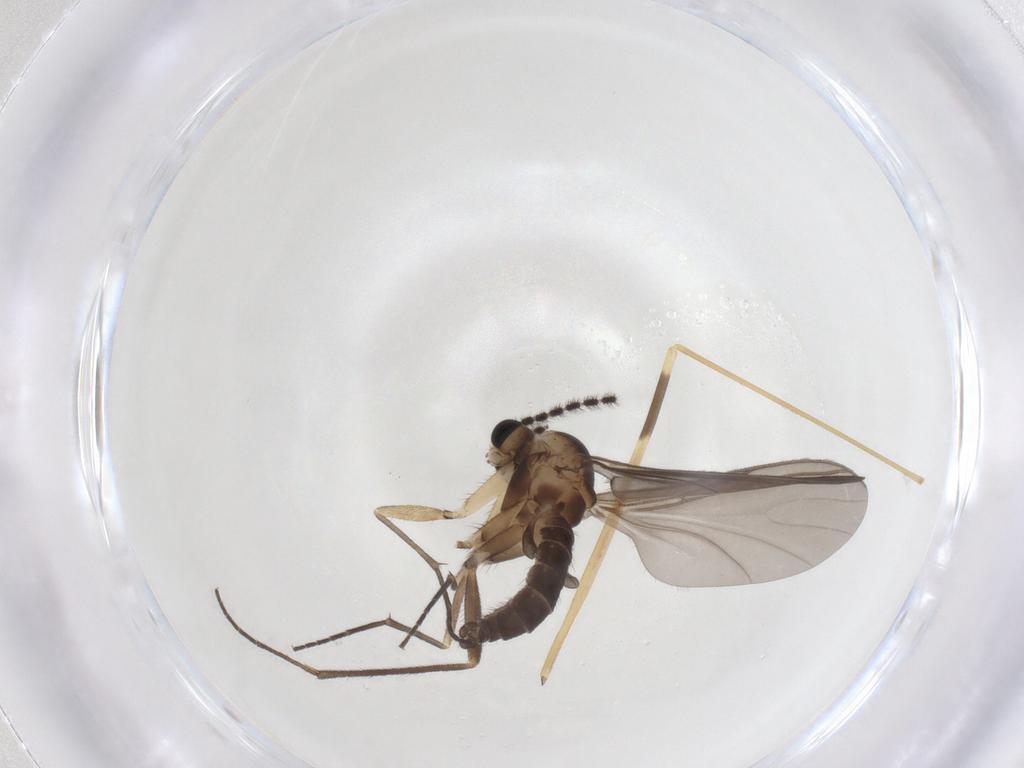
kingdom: Animalia
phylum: Arthropoda
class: Insecta
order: Diptera
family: Sciaridae
